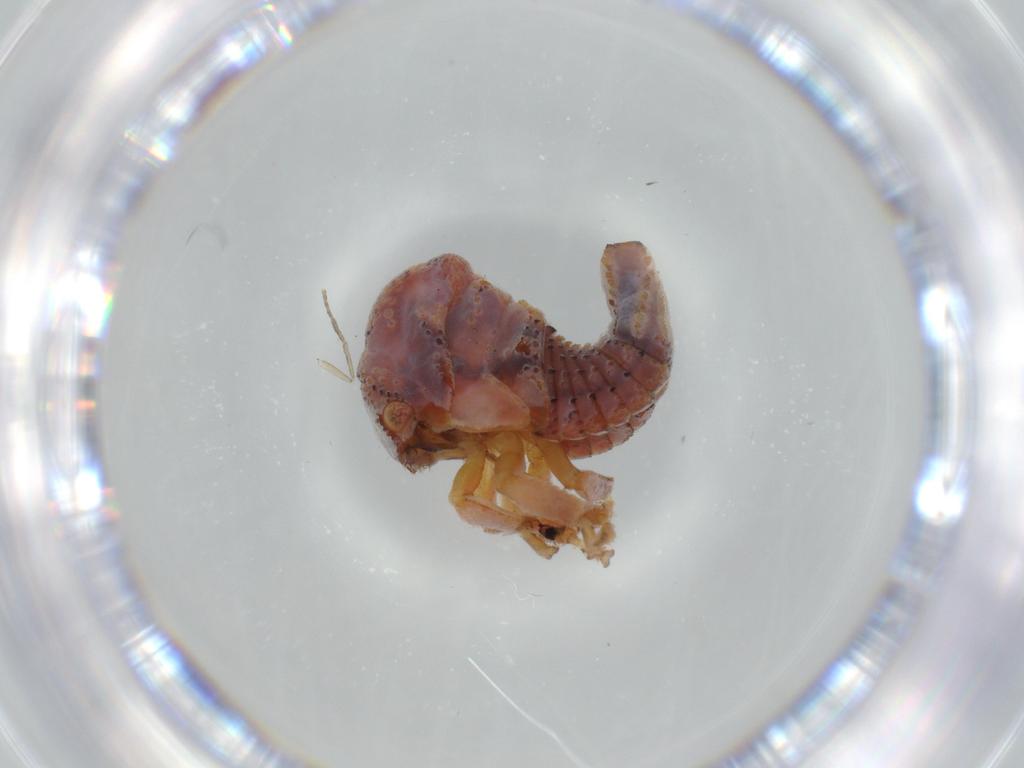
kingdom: Animalia
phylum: Arthropoda
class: Insecta
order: Hemiptera
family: Membracidae
